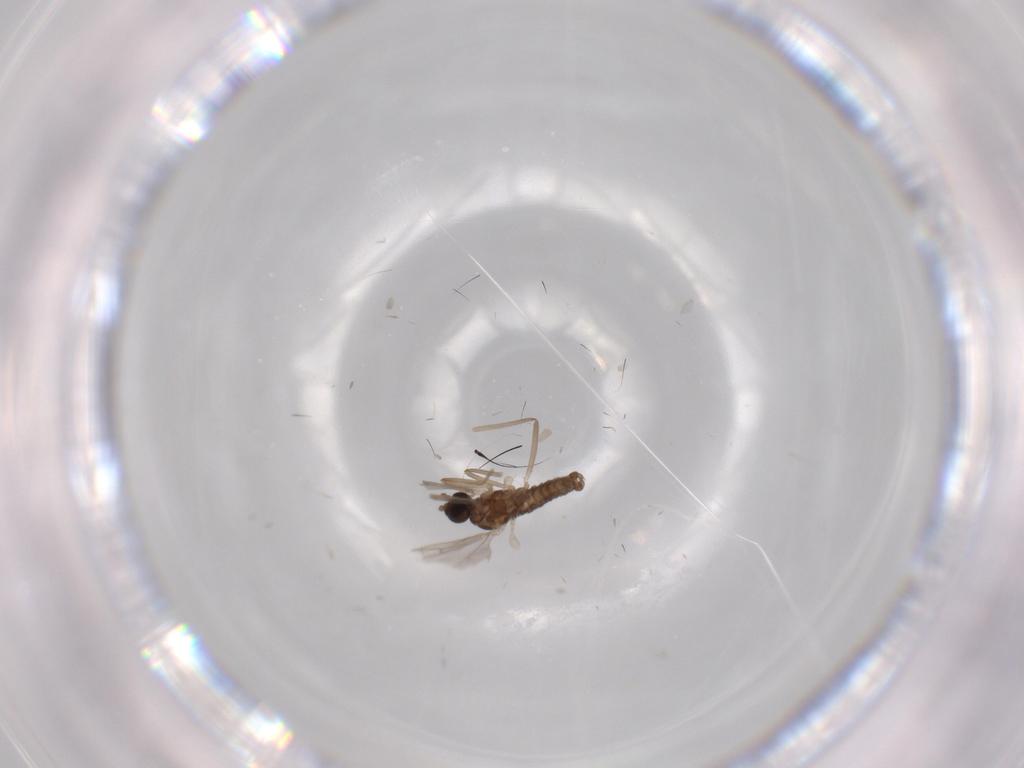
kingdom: Animalia
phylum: Arthropoda
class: Insecta
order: Diptera
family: Cecidomyiidae
